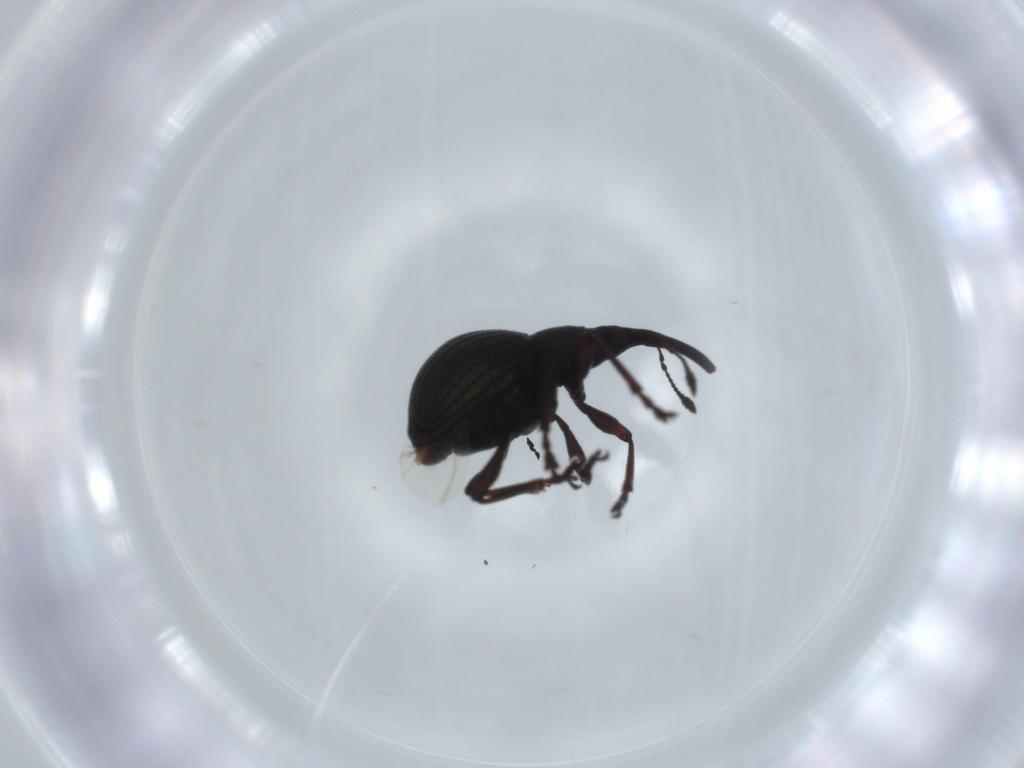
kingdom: Animalia
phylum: Arthropoda
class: Insecta
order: Coleoptera
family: Brentidae
